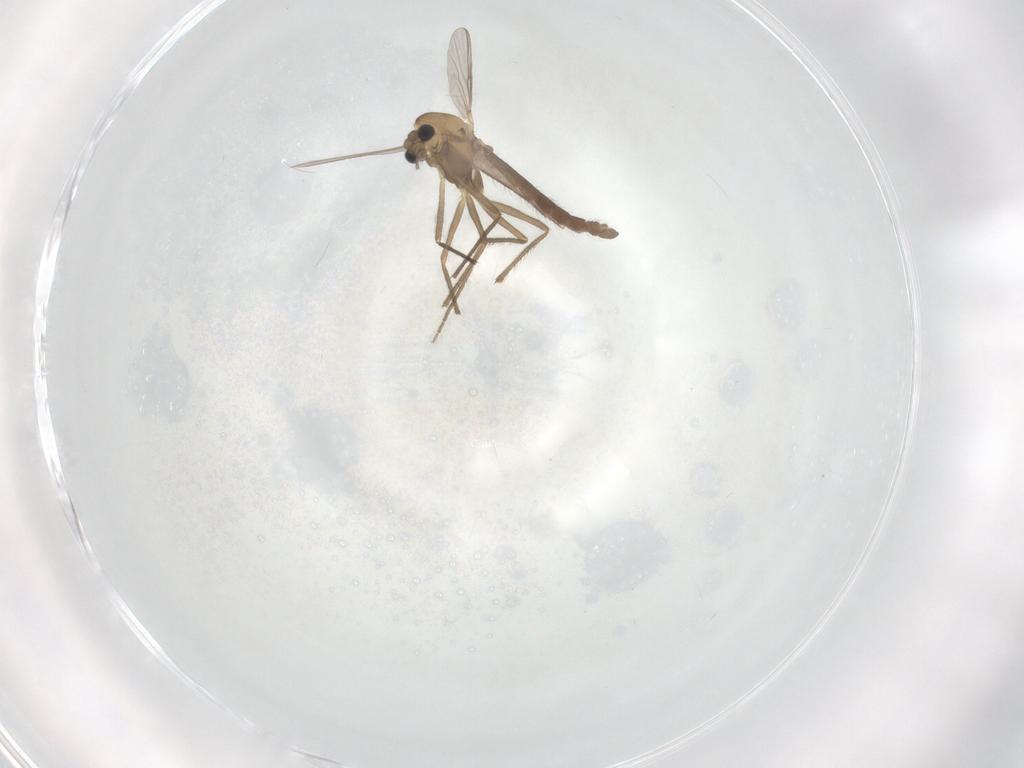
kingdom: Animalia
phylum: Arthropoda
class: Insecta
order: Diptera
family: Chironomidae
